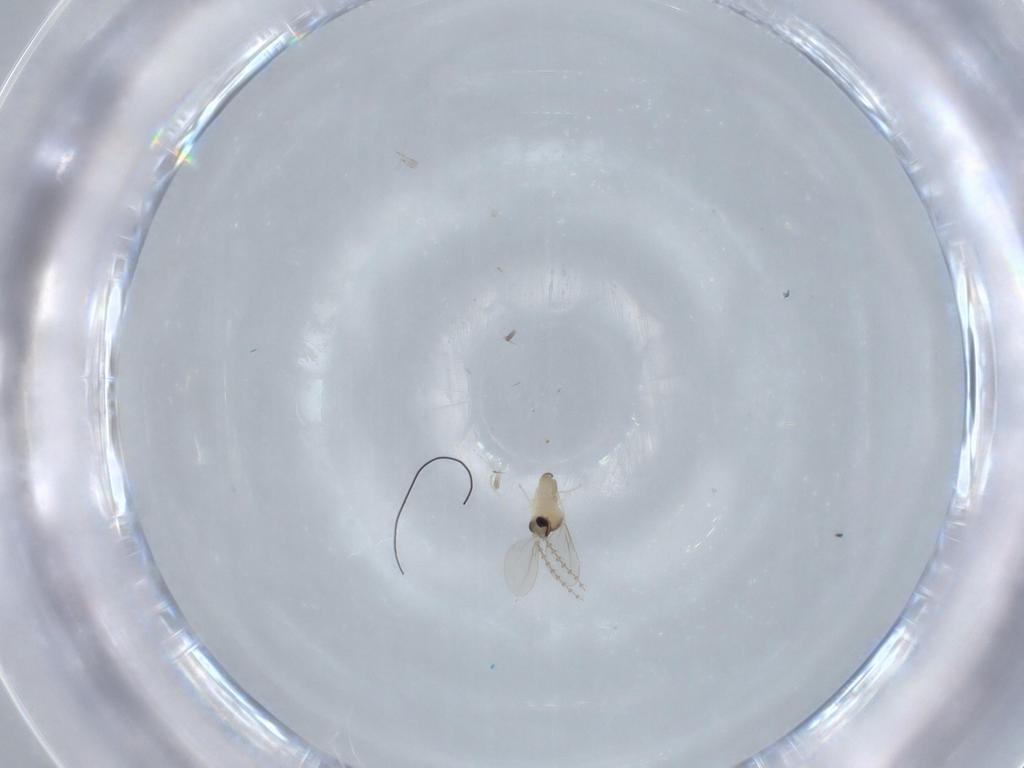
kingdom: Animalia
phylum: Arthropoda
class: Insecta
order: Diptera
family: Cecidomyiidae
